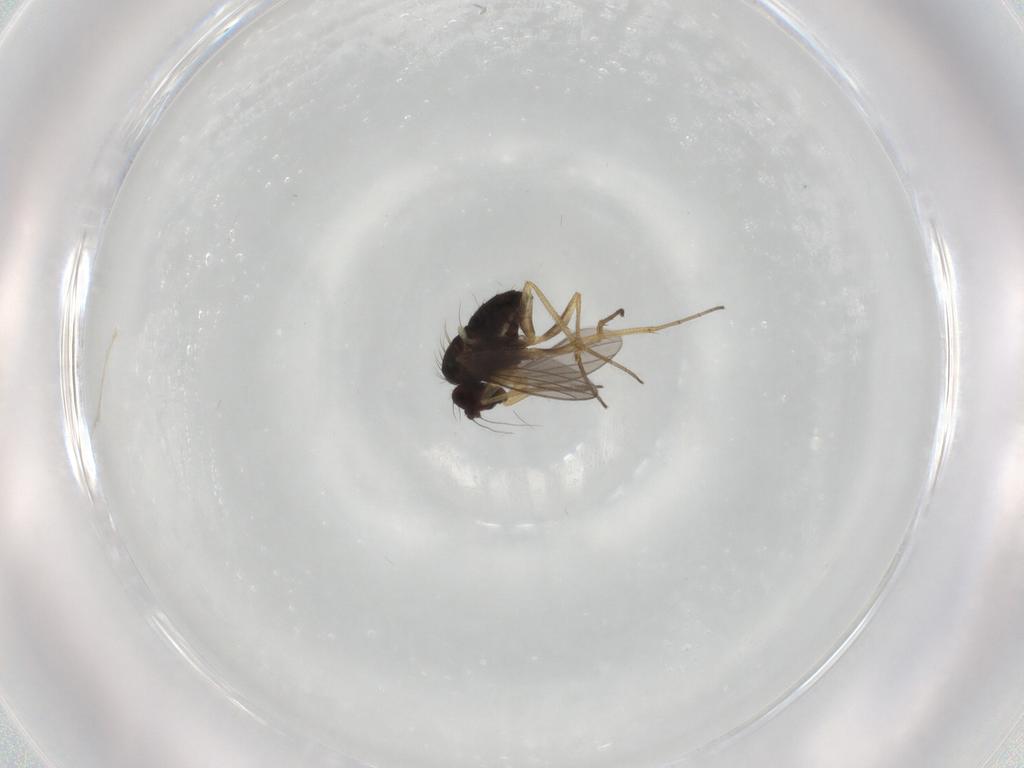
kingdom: Animalia
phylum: Arthropoda
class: Insecta
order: Diptera
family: Dolichopodidae
